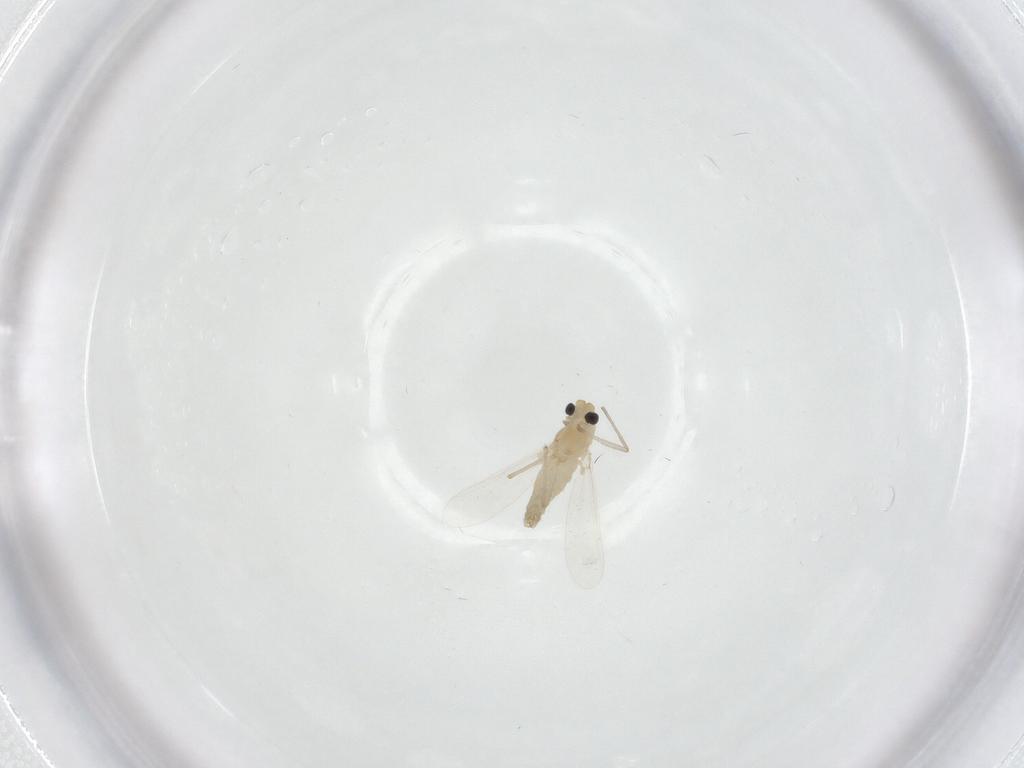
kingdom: Animalia
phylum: Arthropoda
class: Insecta
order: Diptera
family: Chironomidae
